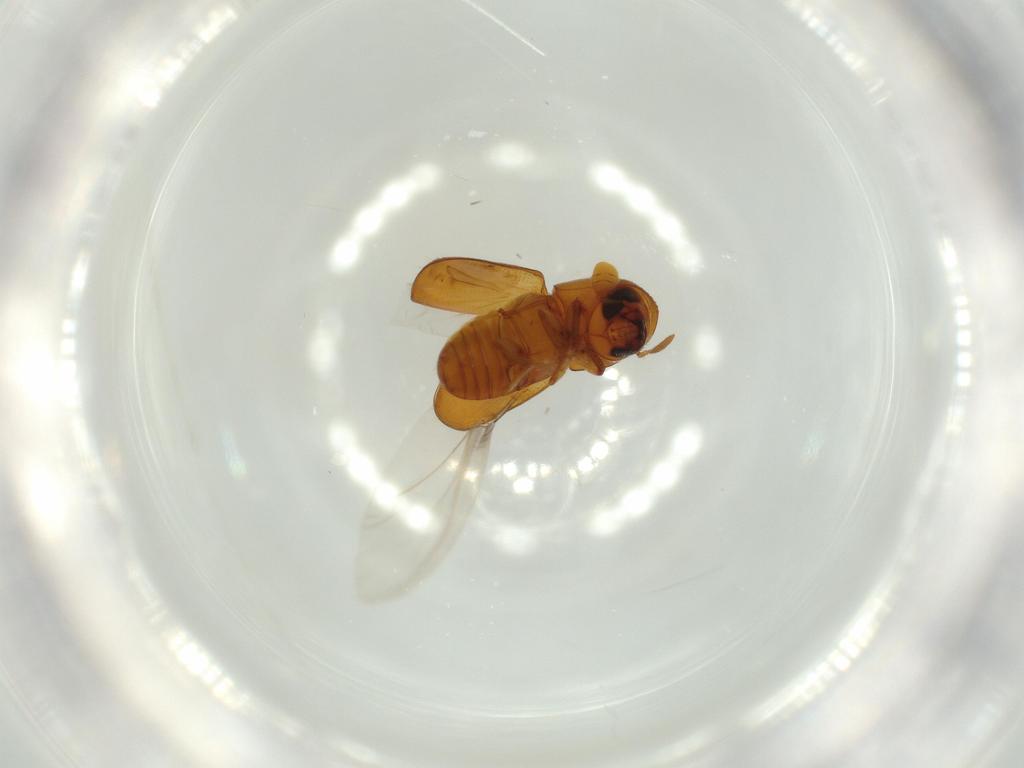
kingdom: Animalia
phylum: Arthropoda
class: Insecta
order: Coleoptera
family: Curculionidae
